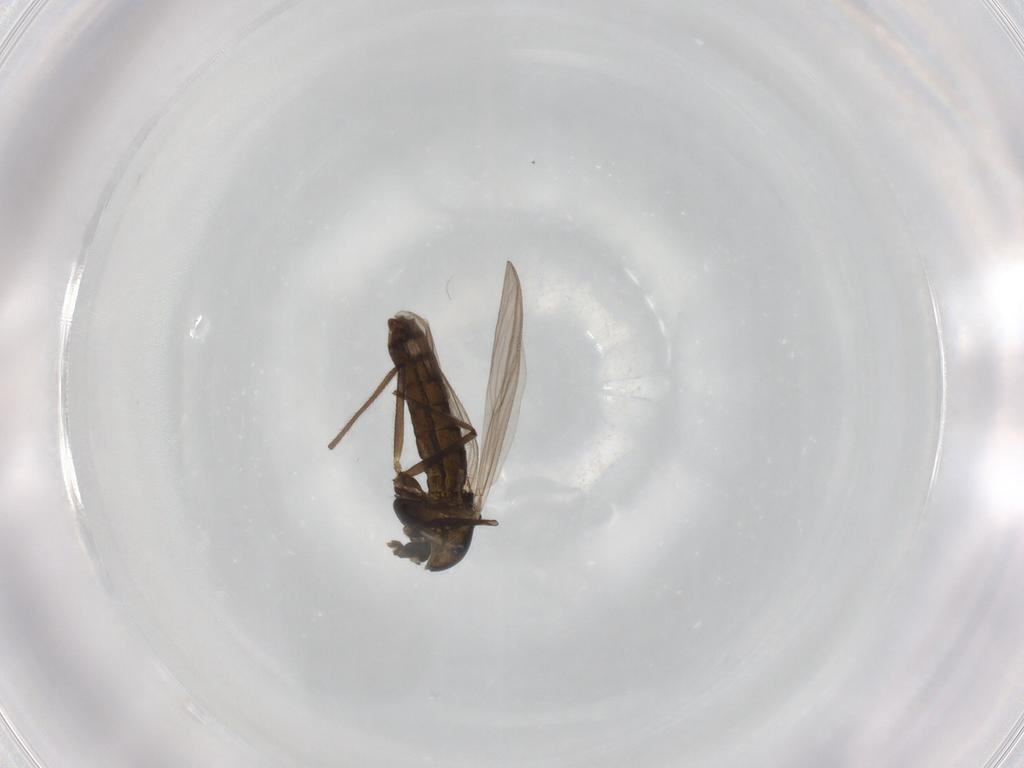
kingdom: Animalia
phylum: Arthropoda
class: Insecta
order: Diptera
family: Chironomidae
